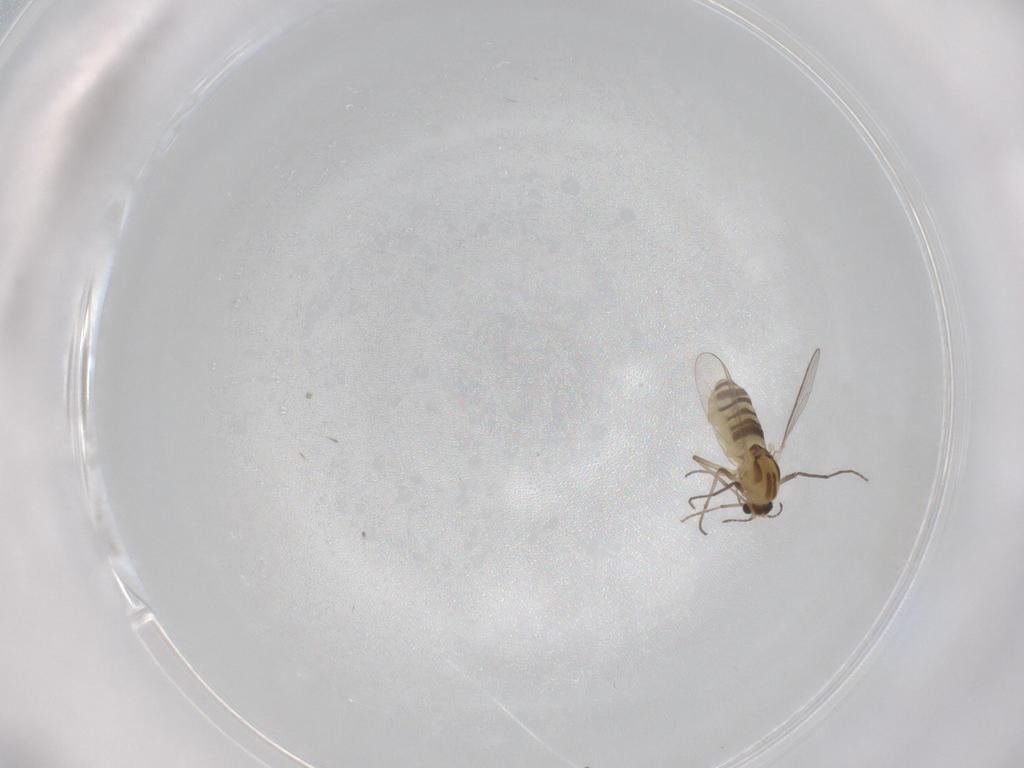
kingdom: Animalia
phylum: Arthropoda
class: Insecta
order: Diptera
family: Chironomidae
